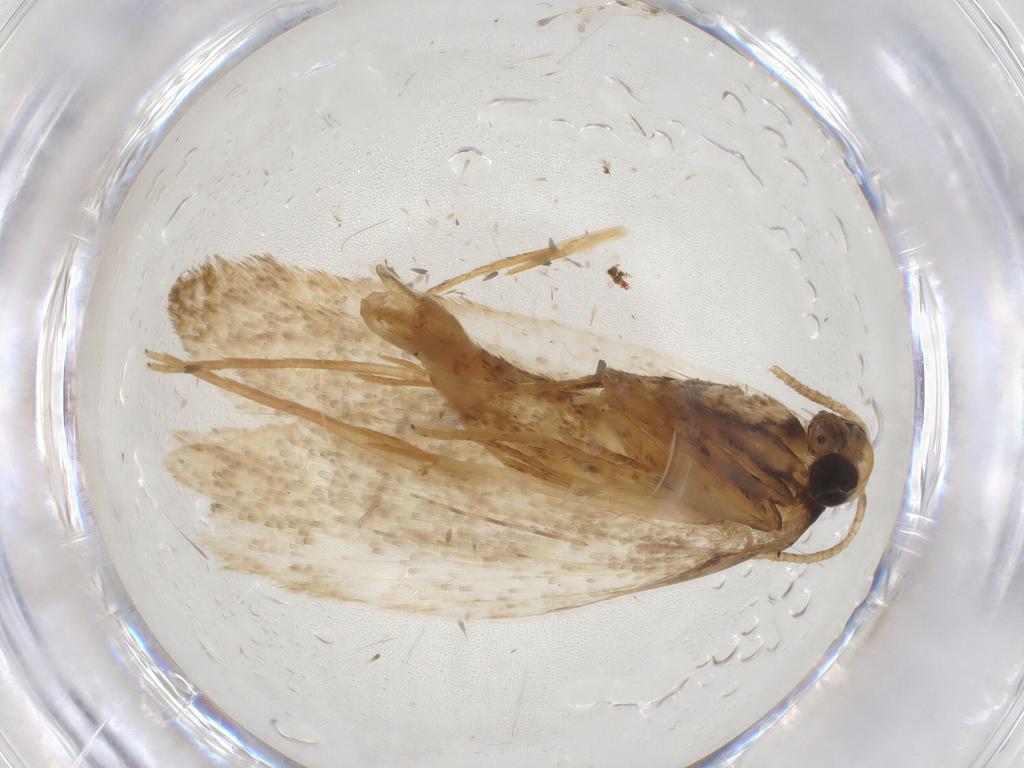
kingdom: Animalia
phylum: Arthropoda
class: Insecta
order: Lepidoptera
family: Oecophoridae
